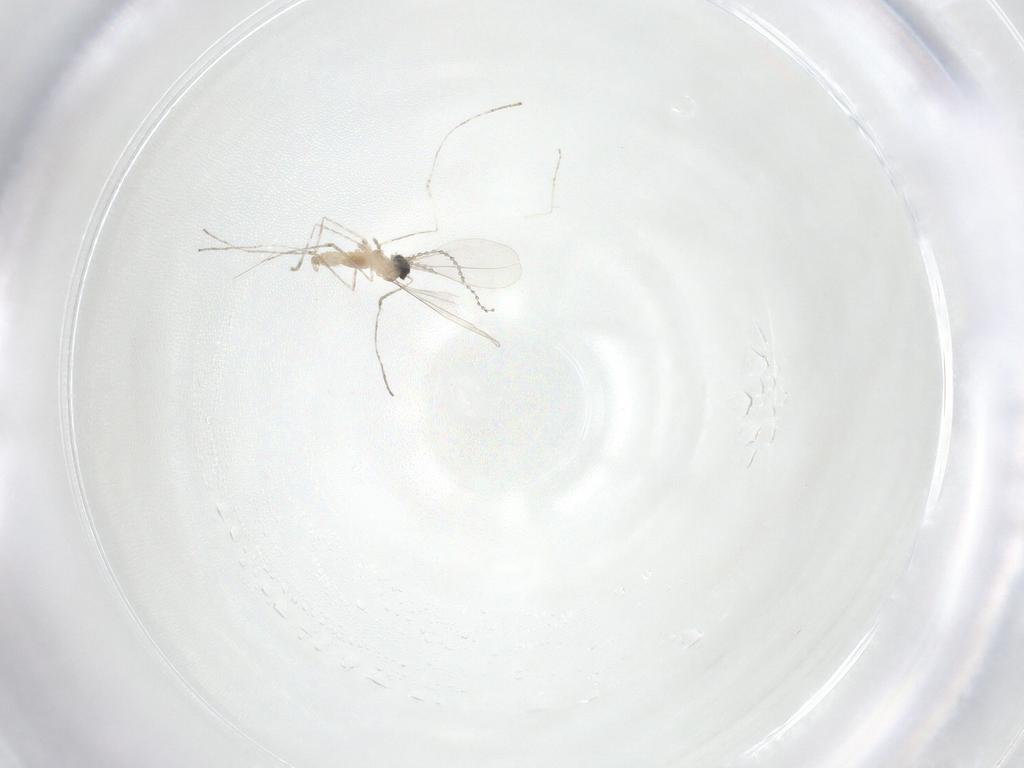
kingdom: Animalia
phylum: Arthropoda
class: Insecta
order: Diptera
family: Cecidomyiidae
